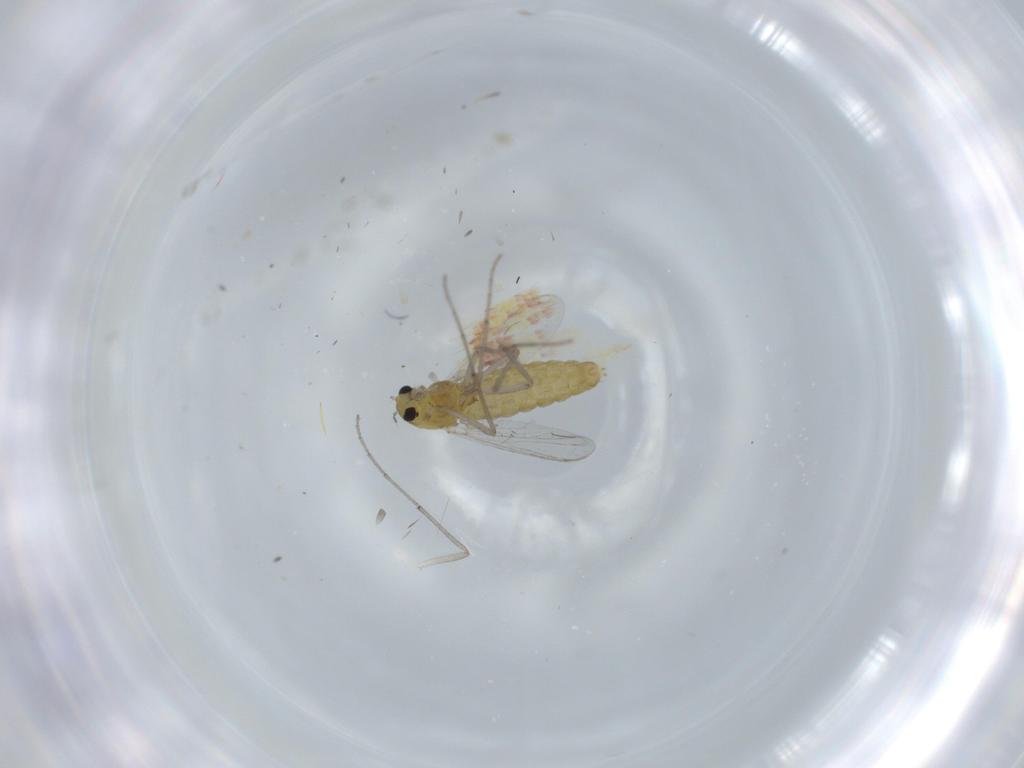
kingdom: Animalia
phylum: Arthropoda
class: Insecta
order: Diptera
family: Chironomidae
